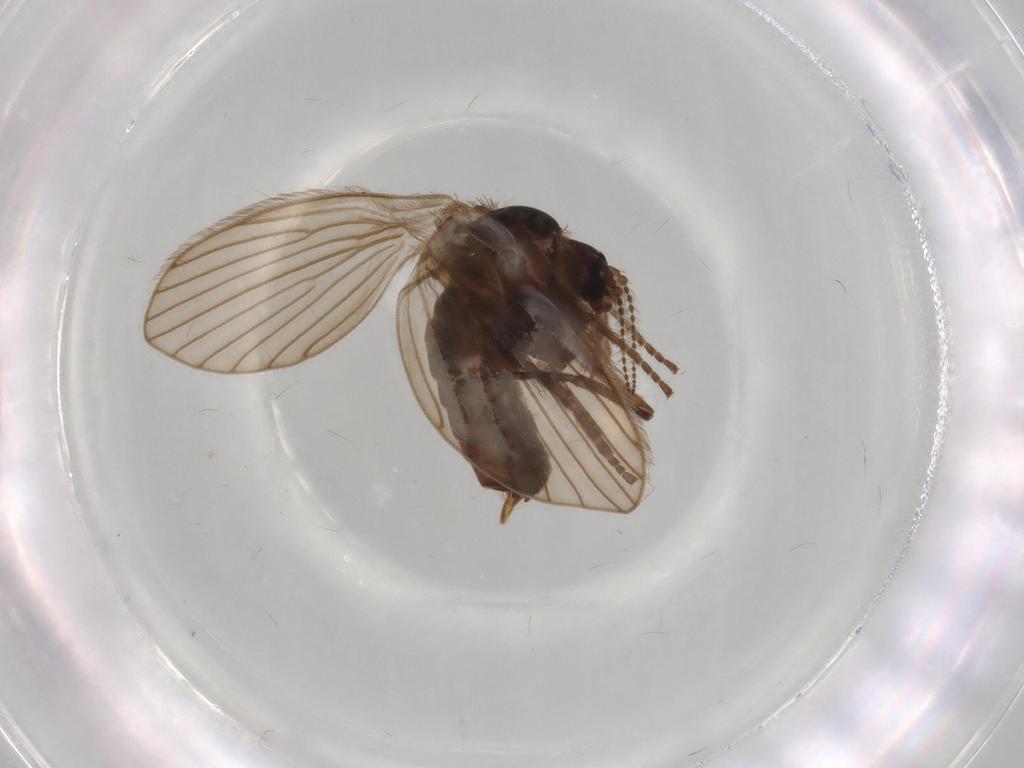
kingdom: Animalia
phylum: Arthropoda
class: Insecta
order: Diptera
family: Psychodidae
